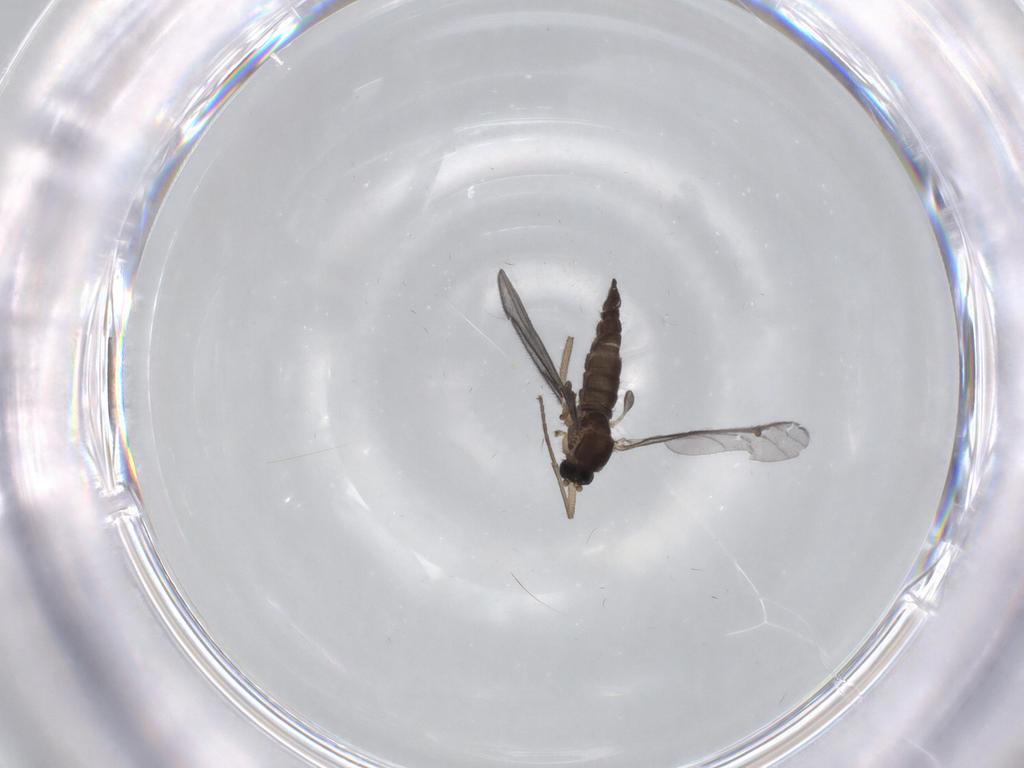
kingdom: Animalia
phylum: Arthropoda
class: Insecta
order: Diptera
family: Sciaridae
